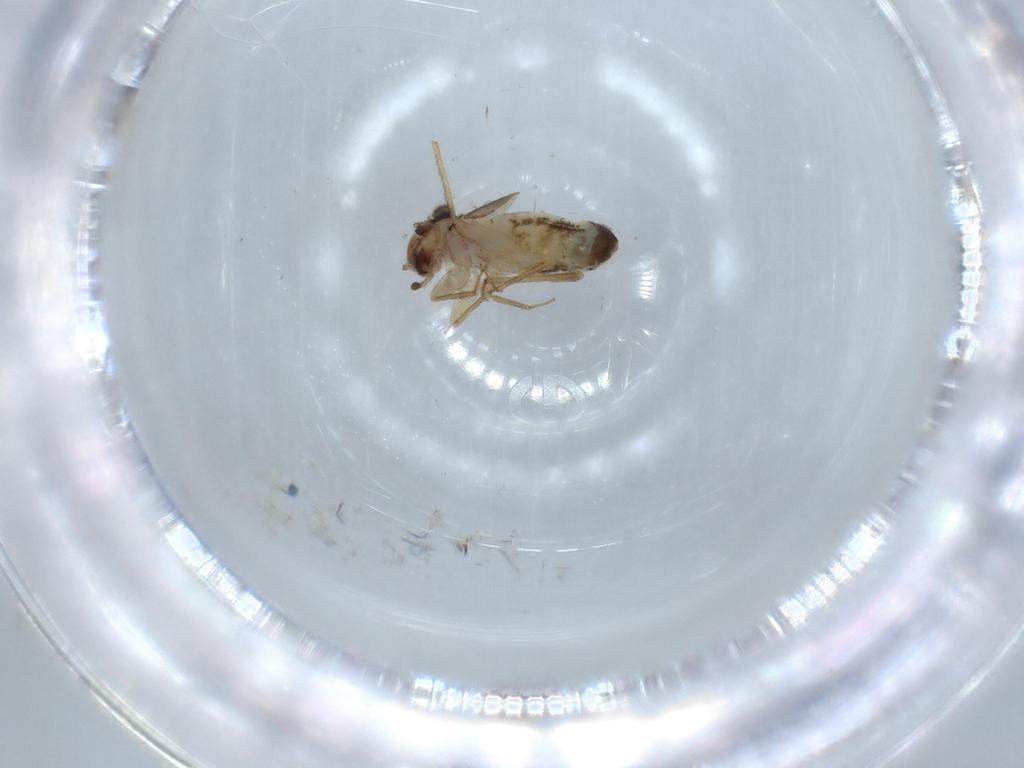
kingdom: Animalia
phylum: Arthropoda
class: Insecta
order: Psocodea
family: Lepidopsocidae
